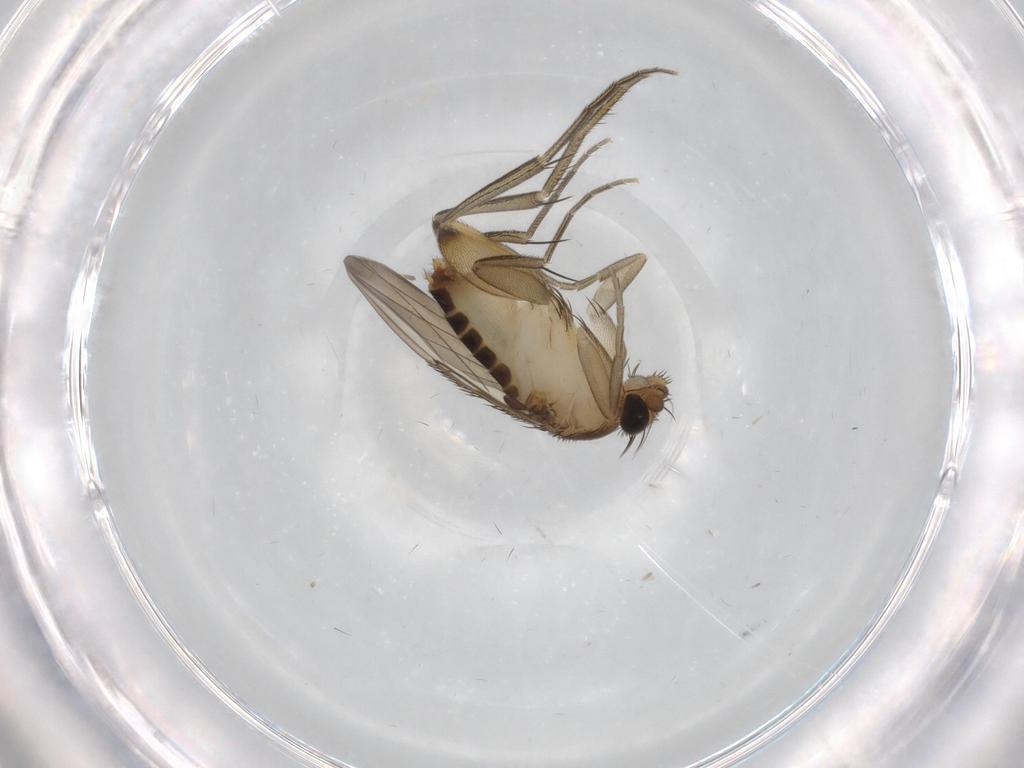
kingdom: Animalia
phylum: Arthropoda
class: Insecta
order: Diptera
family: Phoridae
